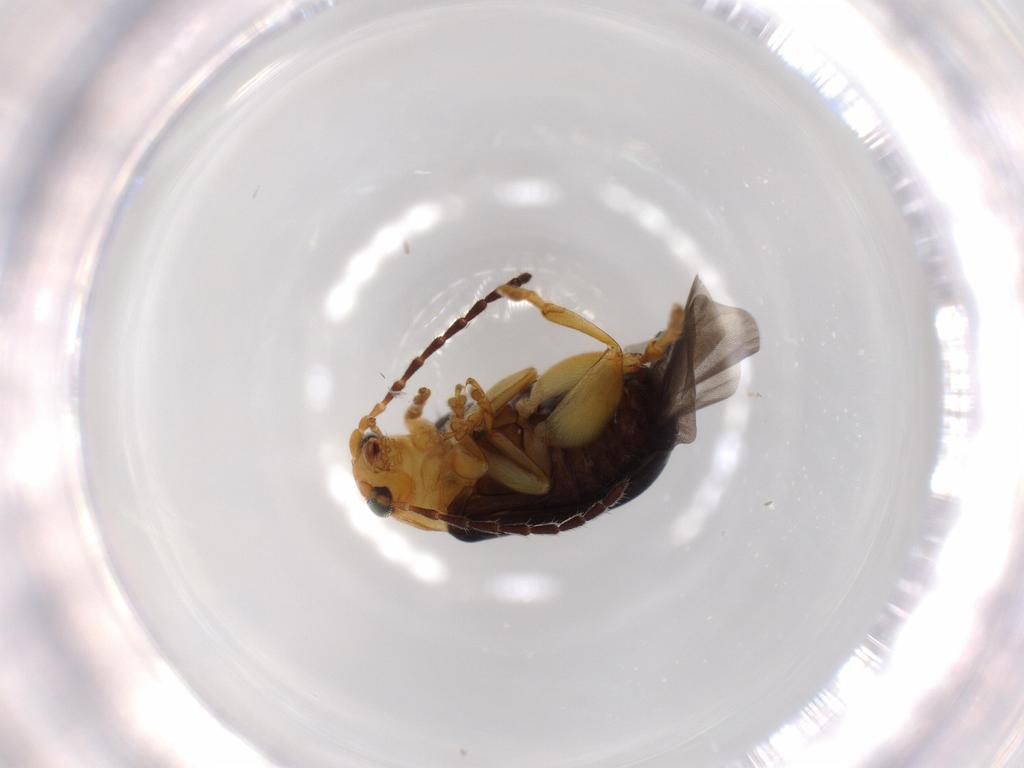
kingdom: Animalia
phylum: Arthropoda
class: Insecta
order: Coleoptera
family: Chrysomelidae
